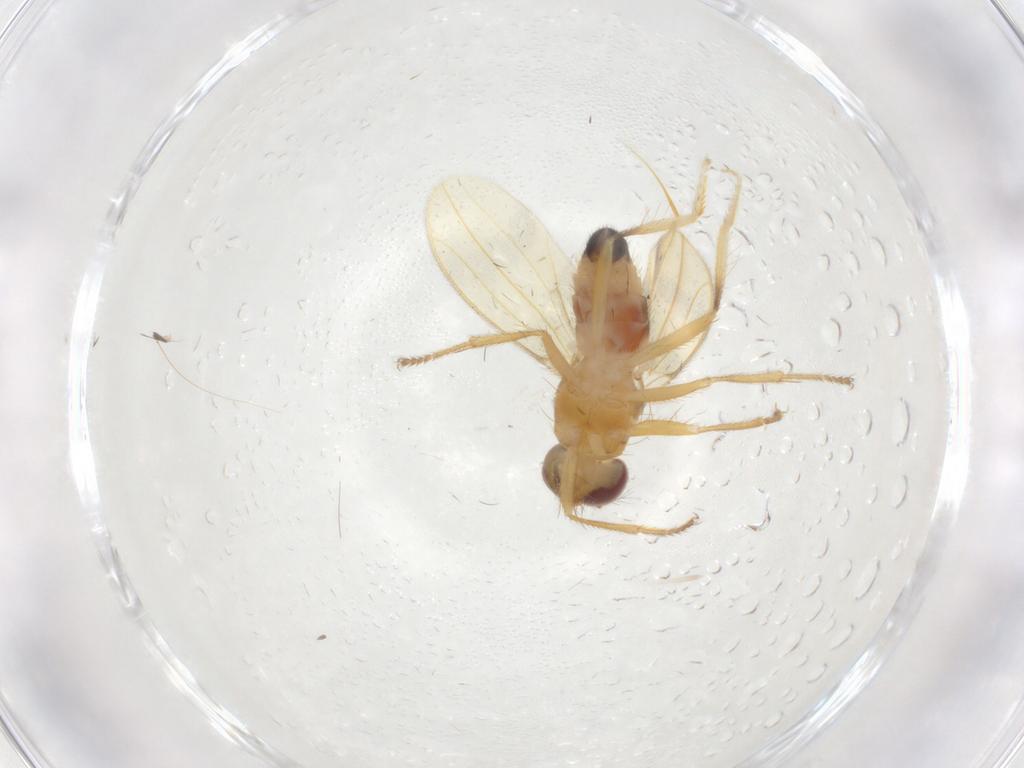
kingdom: Animalia
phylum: Arthropoda
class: Insecta
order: Diptera
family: Periscelididae
